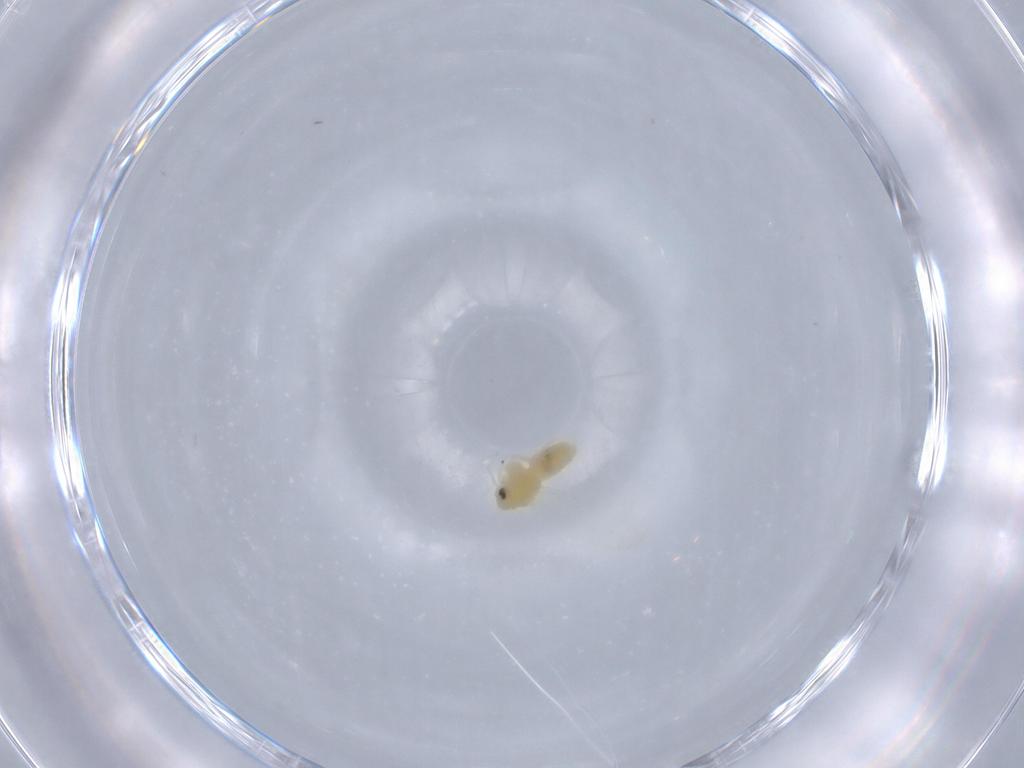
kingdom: Animalia
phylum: Arthropoda
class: Insecta
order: Hemiptera
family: Aleyrodidae
